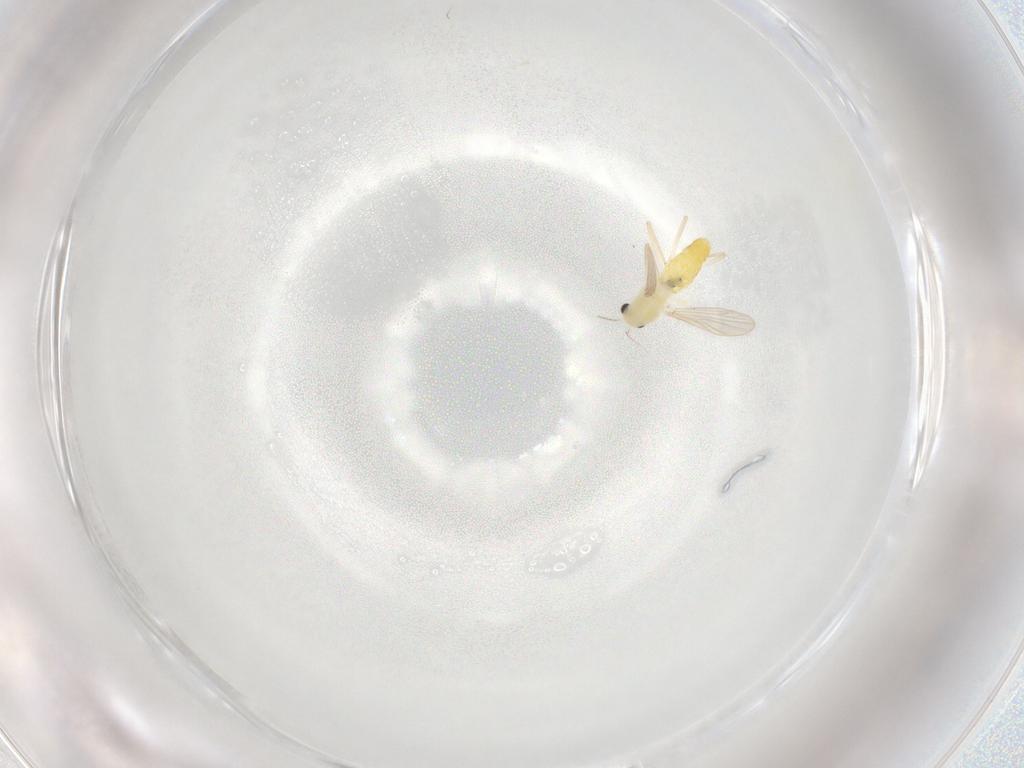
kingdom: Animalia
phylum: Arthropoda
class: Insecta
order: Diptera
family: Chironomidae
